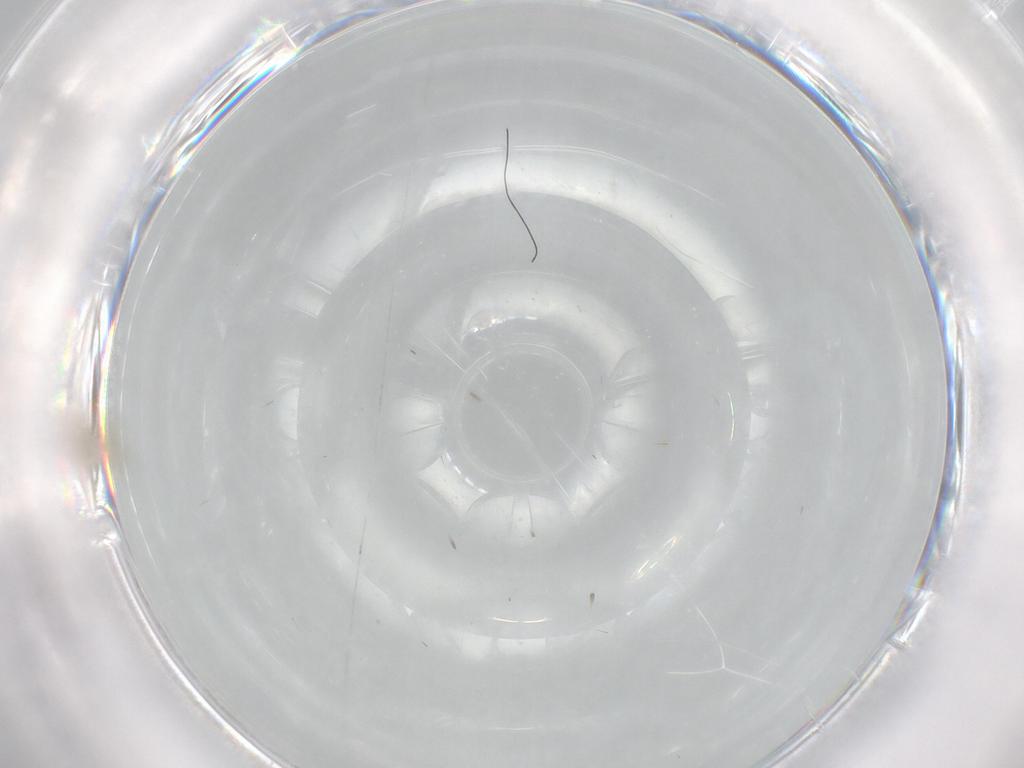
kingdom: Animalia
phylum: Arthropoda
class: Insecta
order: Diptera
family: Cecidomyiidae
